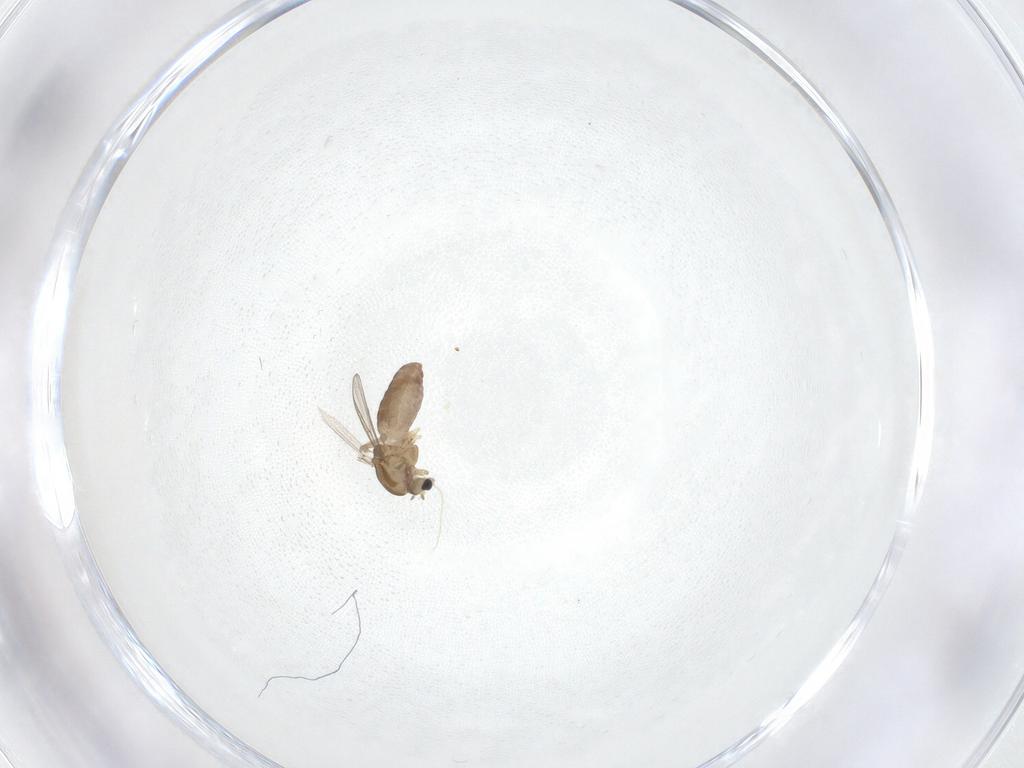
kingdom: Animalia
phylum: Arthropoda
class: Insecta
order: Diptera
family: Chironomidae
